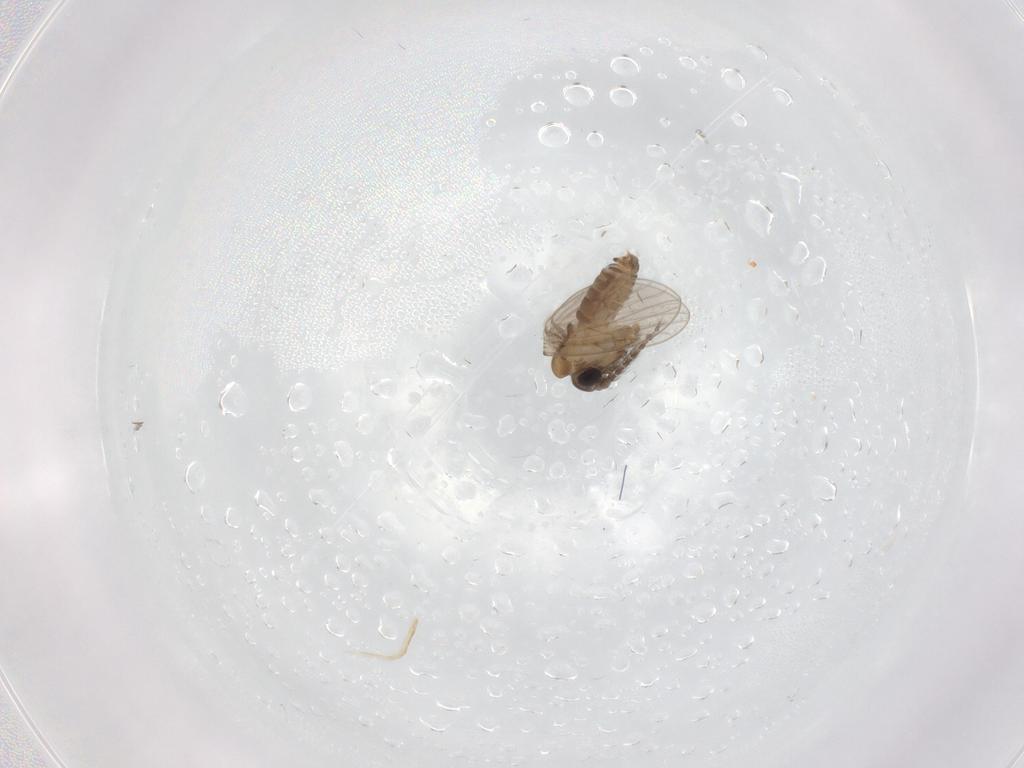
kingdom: Animalia
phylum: Arthropoda
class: Insecta
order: Diptera
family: Psychodidae
